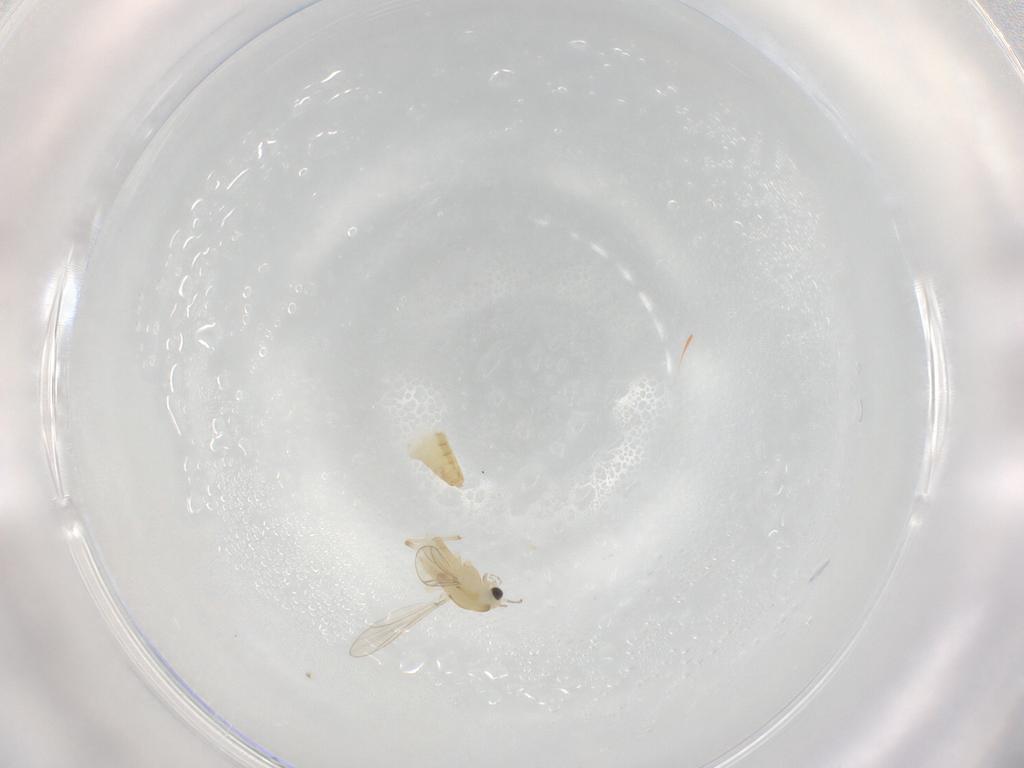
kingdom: Animalia
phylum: Arthropoda
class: Insecta
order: Diptera
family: Chironomidae
